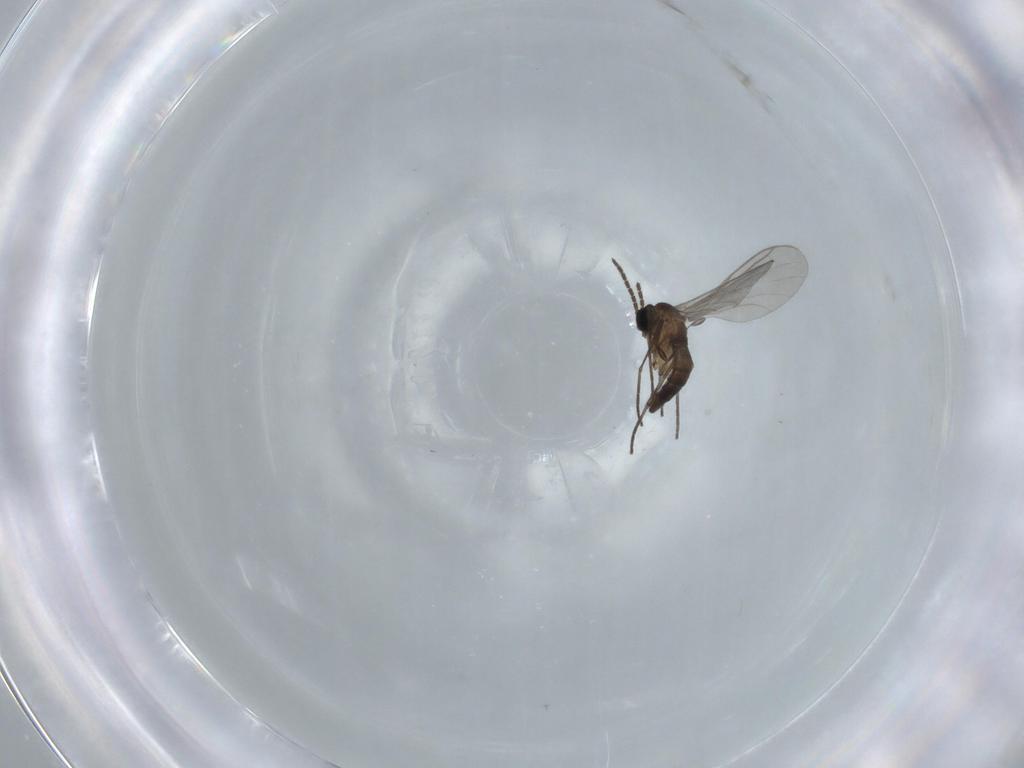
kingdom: Animalia
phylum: Arthropoda
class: Insecta
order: Diptera
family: Sciaridae
